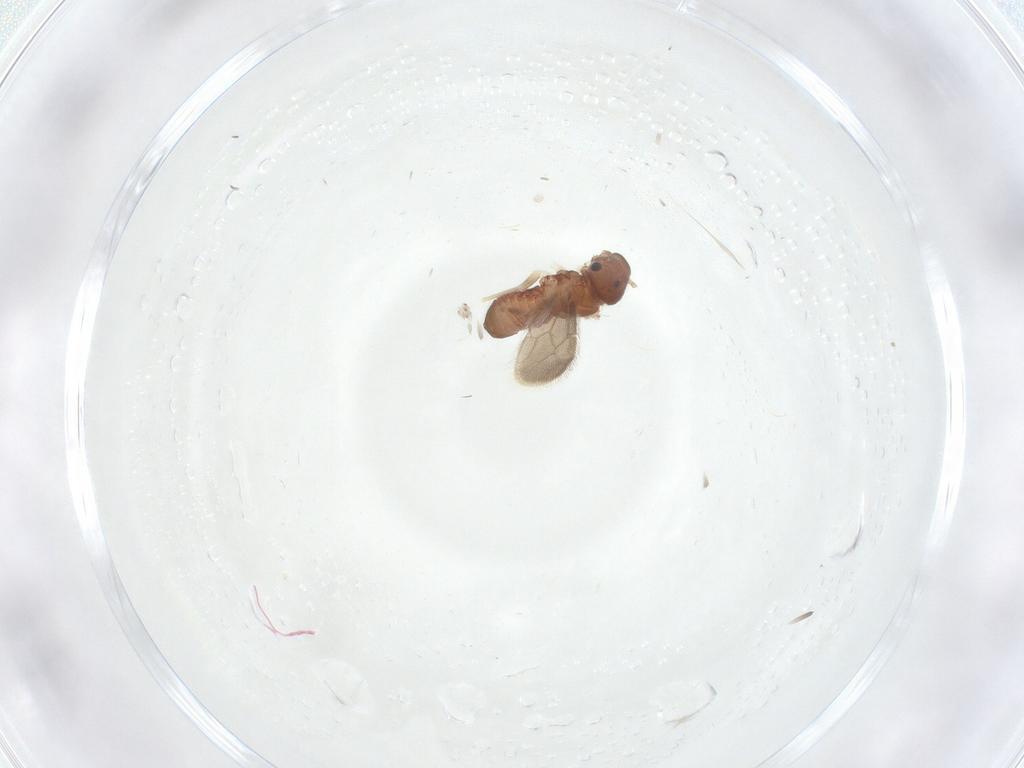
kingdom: Animalia
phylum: Arthropoda
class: Insecta
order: Psocodea
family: Archipsocidae
